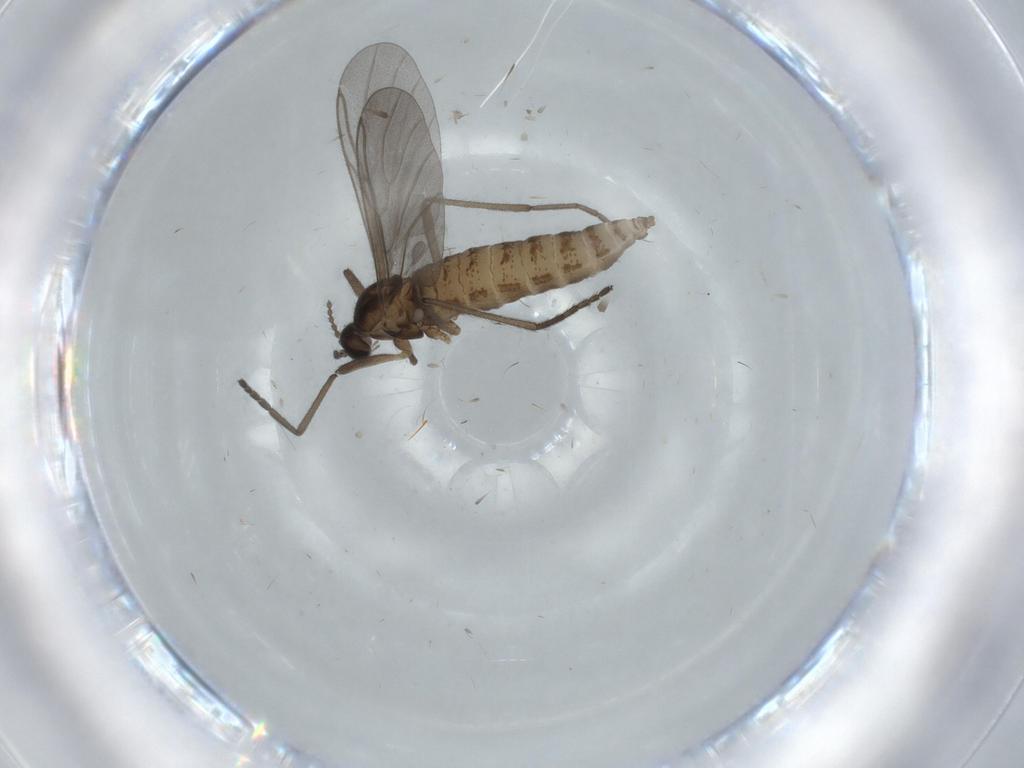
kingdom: Animalia
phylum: Arthropoda
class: Insecta
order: Diptera
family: Cecidomyiidae
